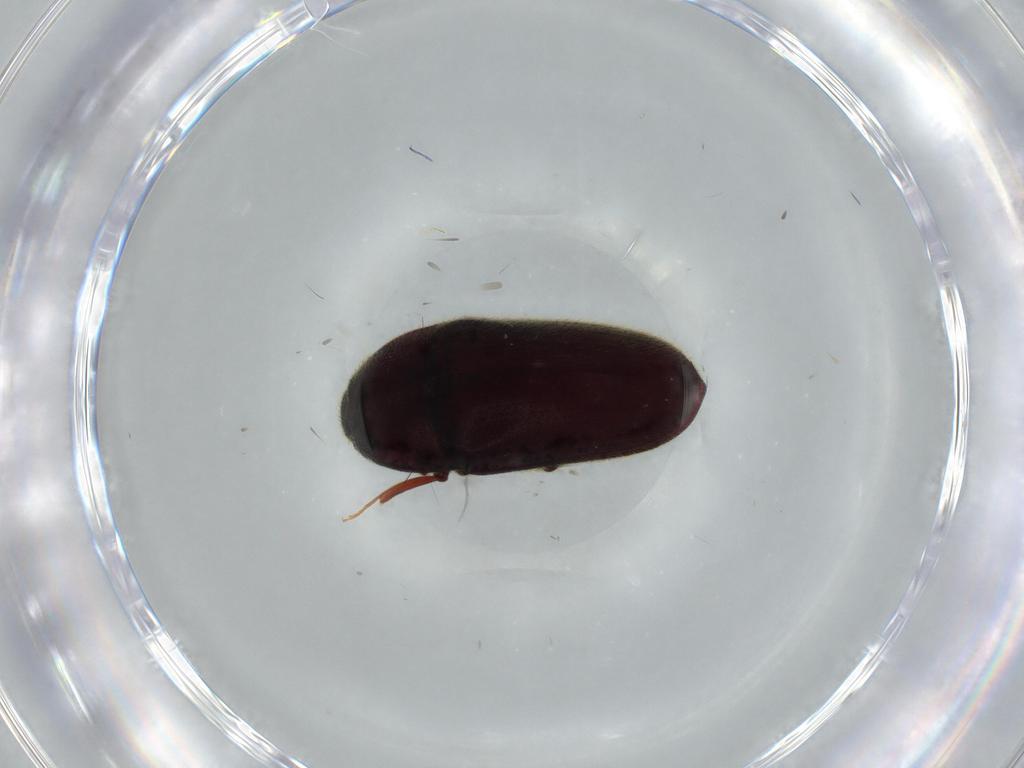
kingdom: Animalia
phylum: Arthropoda
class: Insecta
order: Coleoptera
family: Throscidae
